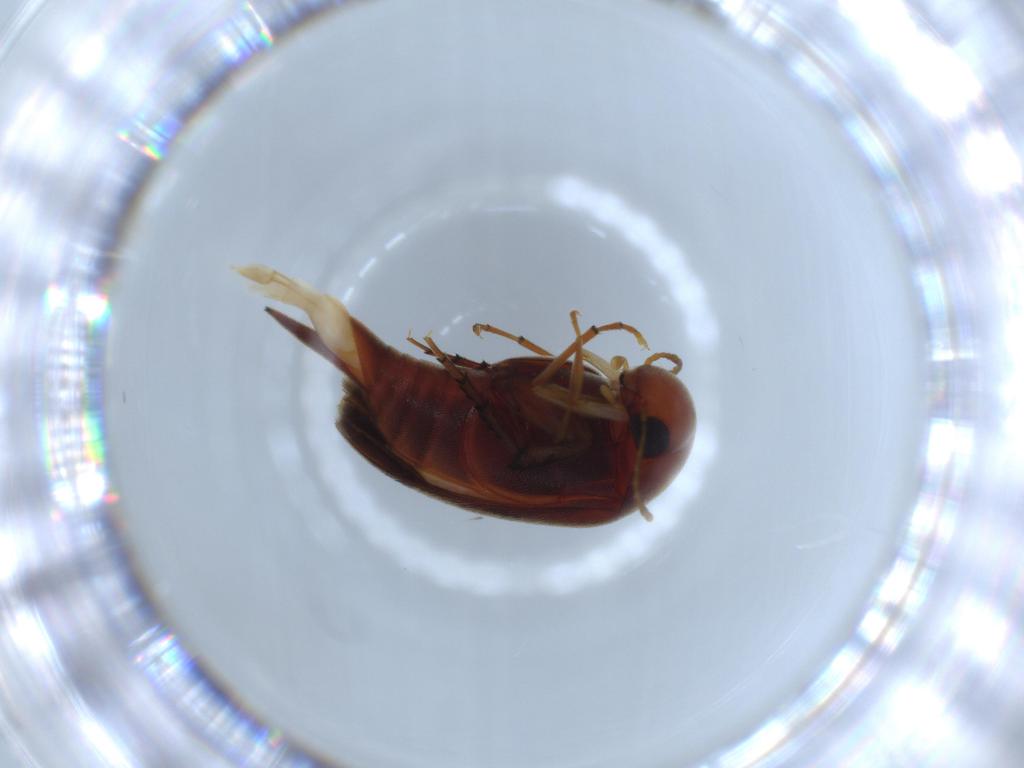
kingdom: Animalia
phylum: Arthropoda
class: Insecta
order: Coleoptera
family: Mordellidae
